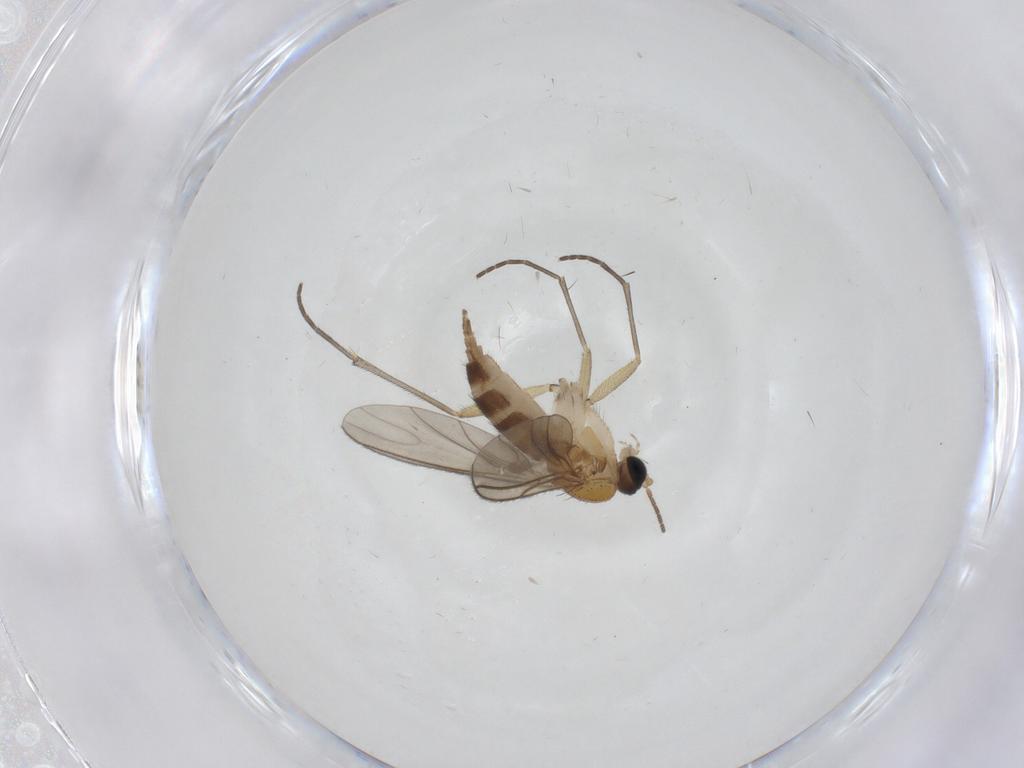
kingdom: Animalia
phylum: Arthropoda
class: Insecta
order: Diptera
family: Sciaridae
